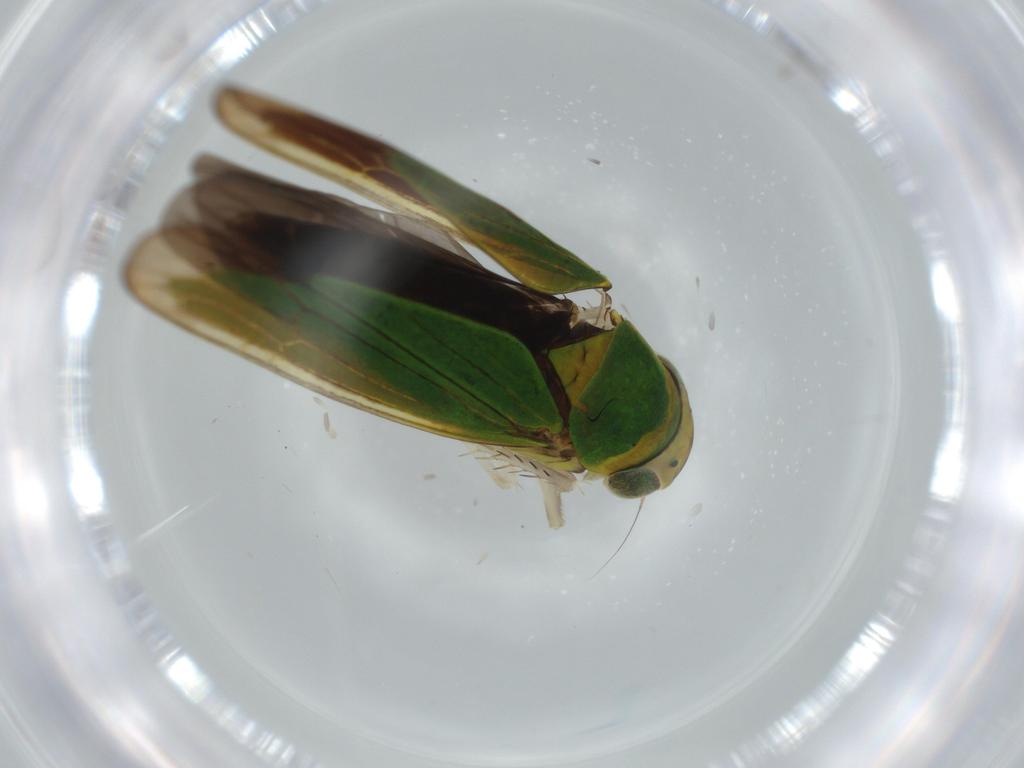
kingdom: Animalia
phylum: Arthropoda
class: Insecta
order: Hemiptera
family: Cicadellidae
